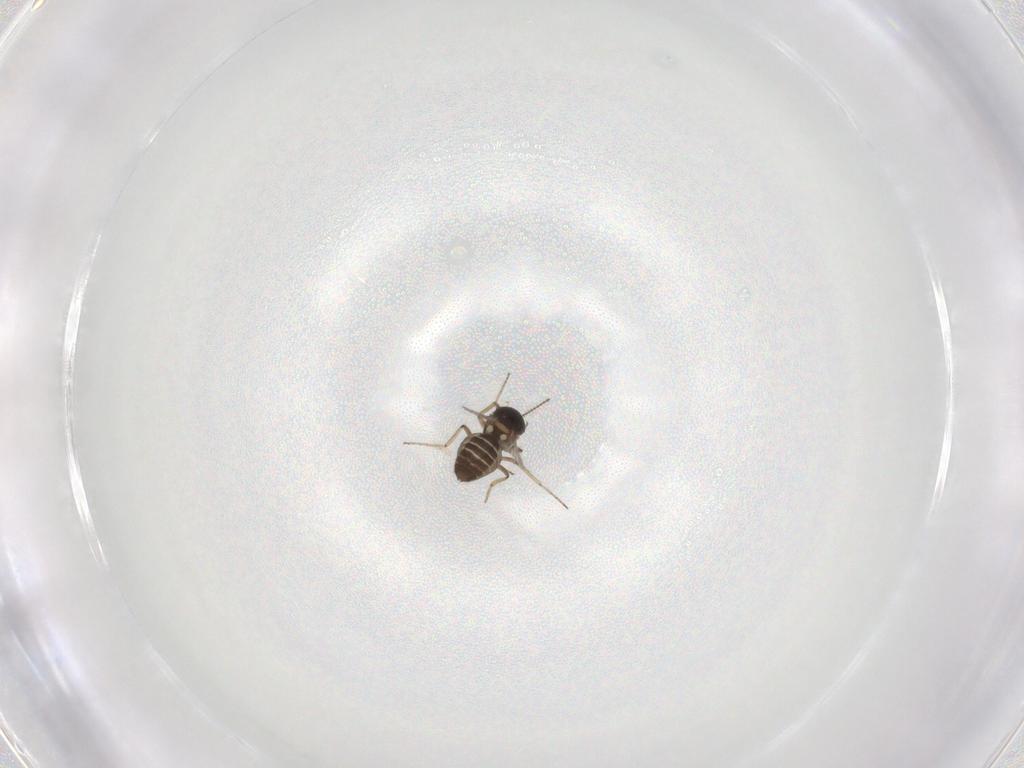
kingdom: Animalia
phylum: Arthropoda
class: Insecta
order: Diptera
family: Ceratopogonidae
